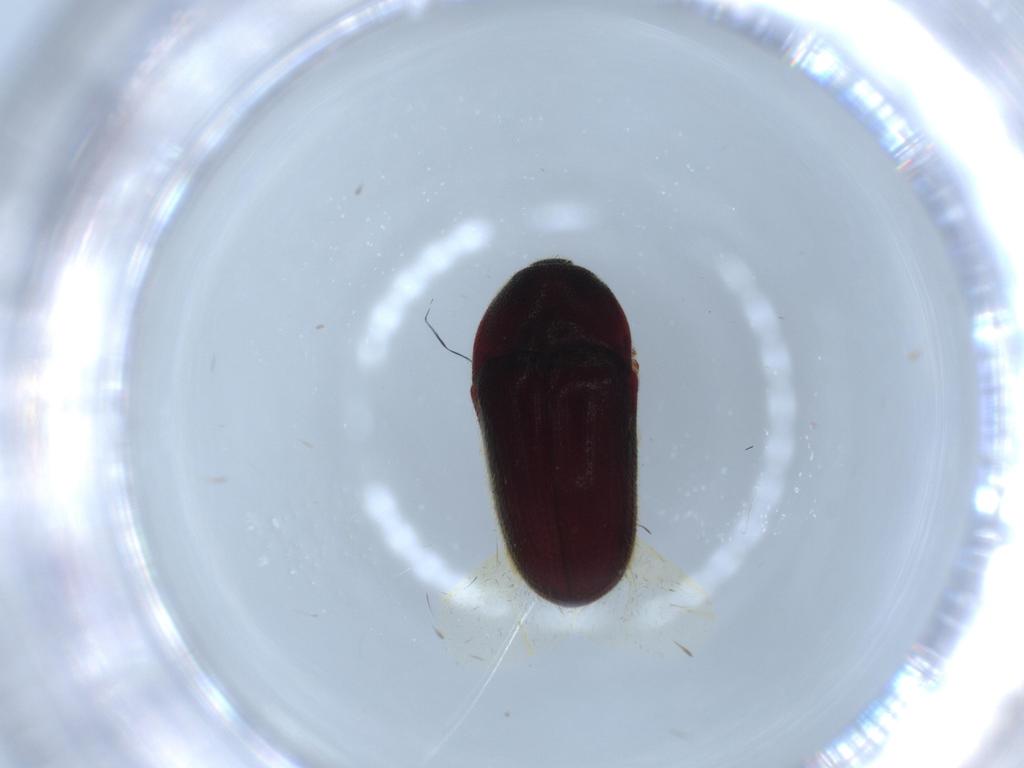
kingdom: Animalia
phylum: Arthropoda
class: Insecta
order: Coleoptera
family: Throscidae
